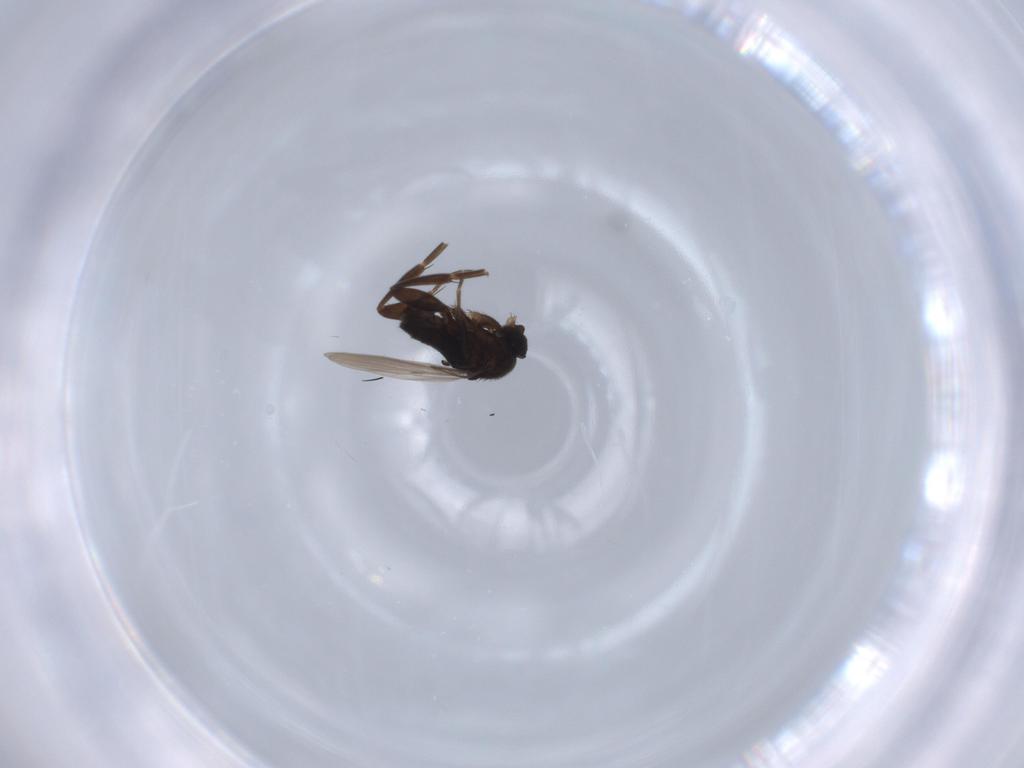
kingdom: Animalia
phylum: Arthropoda
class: Insecta
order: Diptera
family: Phoridae
